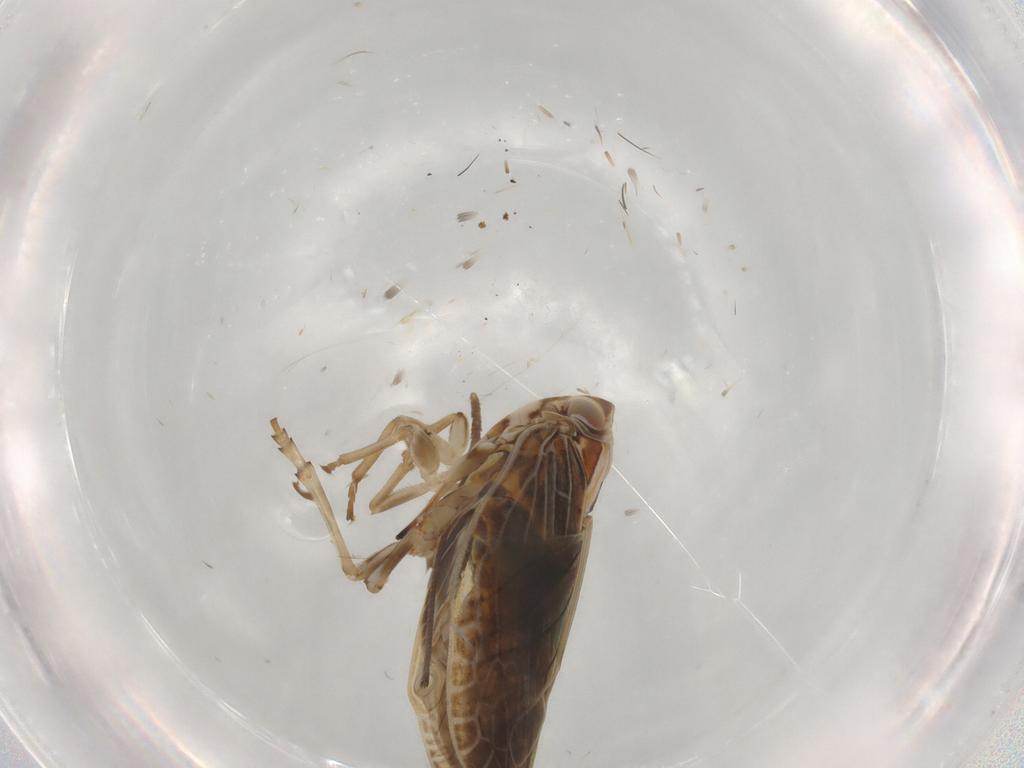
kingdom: Animalia
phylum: Arthropoda
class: Insecta
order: Hemiptera
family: Achilidae
